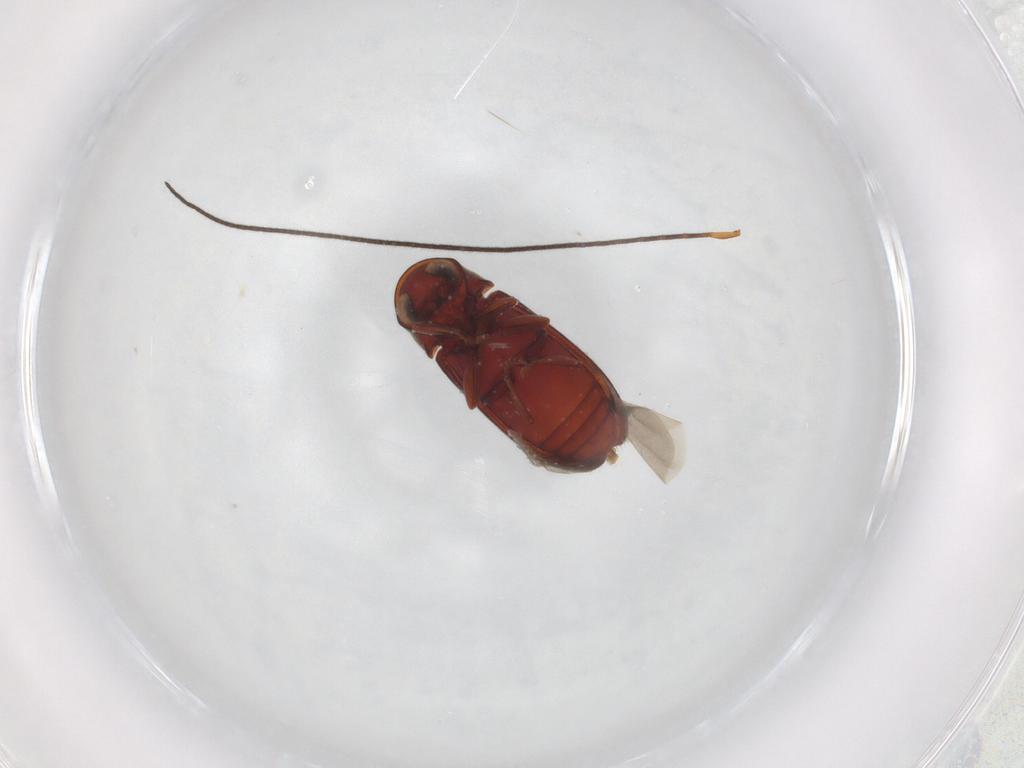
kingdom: Animalia
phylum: Arthropoda
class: Insecta
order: Coleoptera
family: Ptinidae
